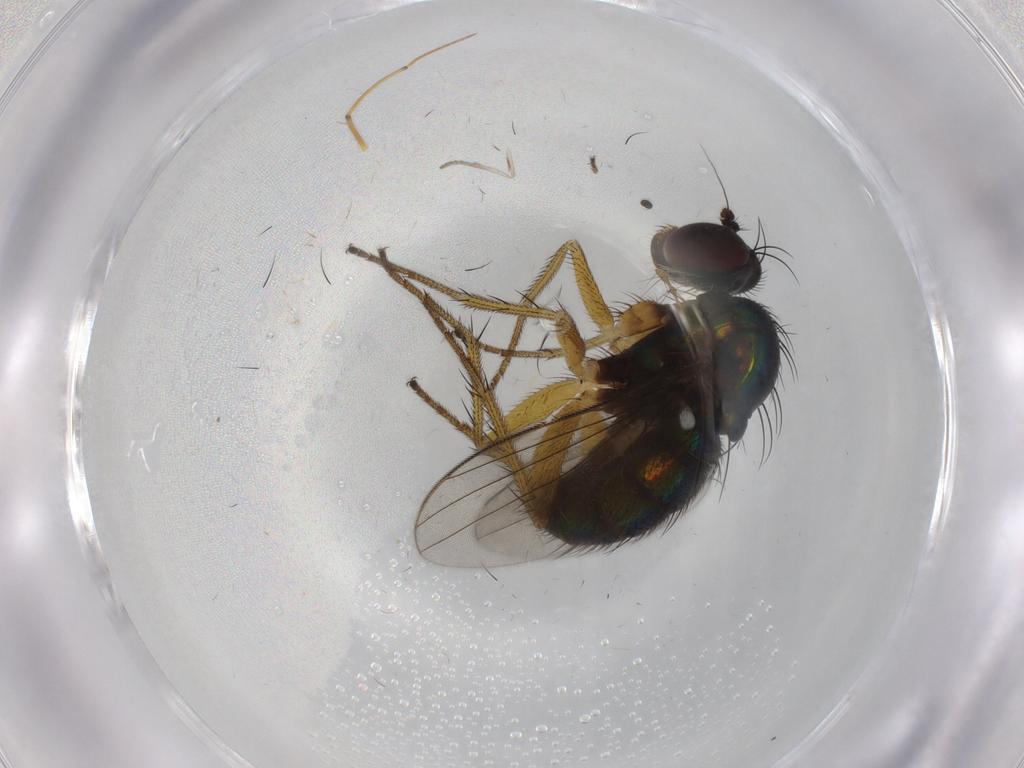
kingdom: Animalia
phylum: Arthropoda
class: Insecta
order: Diptera
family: Dolichopodidae
